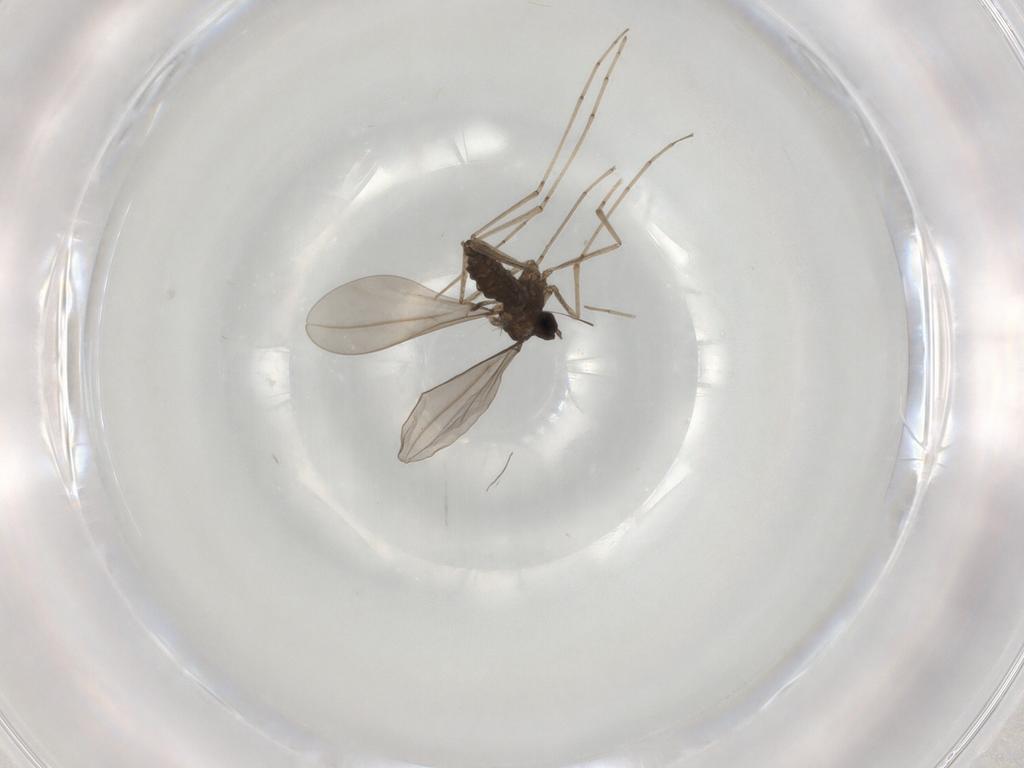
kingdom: Animalia
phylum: Arthropoda
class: Insecta
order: Diptera
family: Cecidomyiidae
